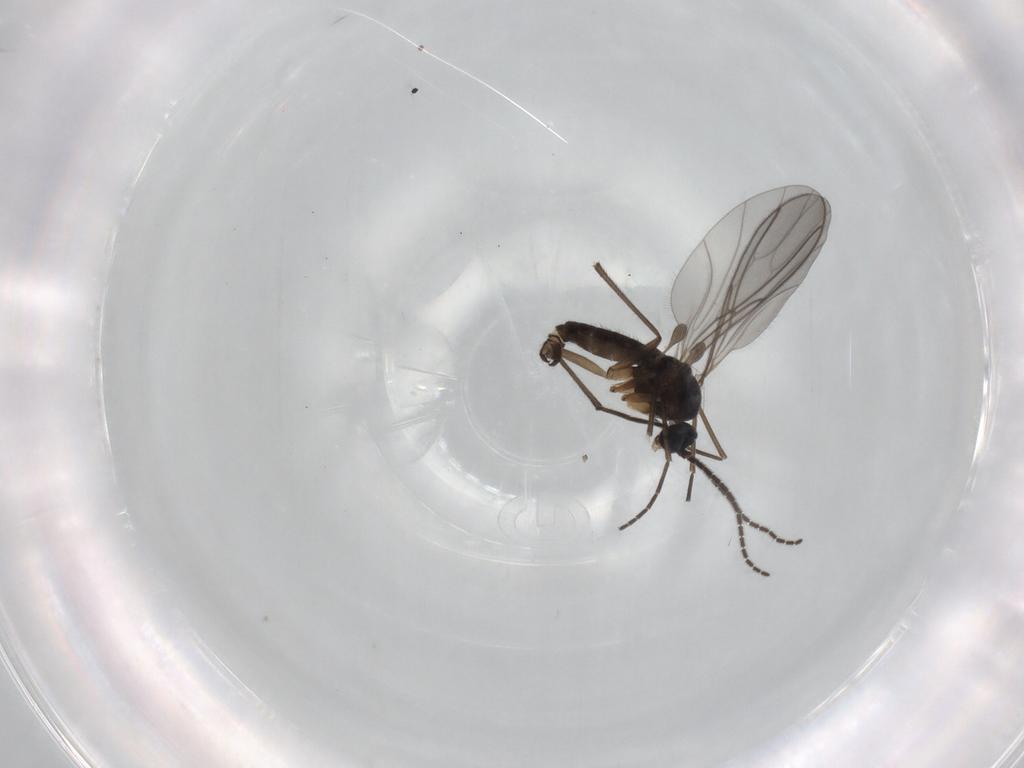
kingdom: Animalia
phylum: Arthropoda
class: Insecta
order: Diptera
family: Sciaridae
